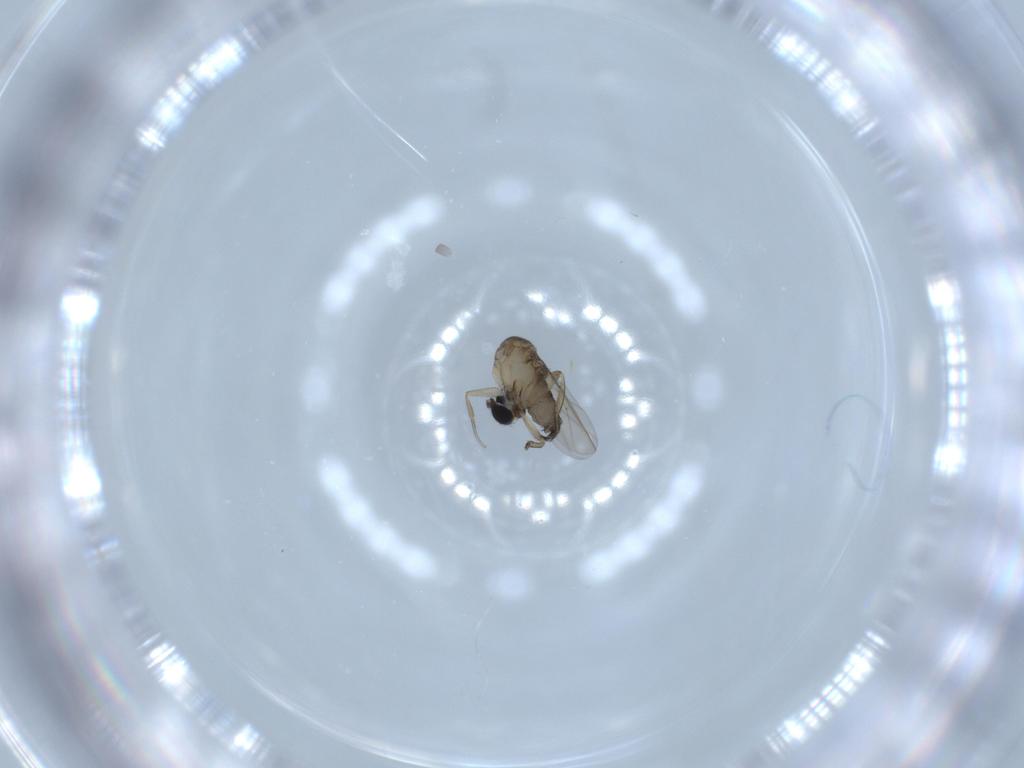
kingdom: Animalia
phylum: Arthropoda
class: Insecta
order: Diptera
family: Phoridae
